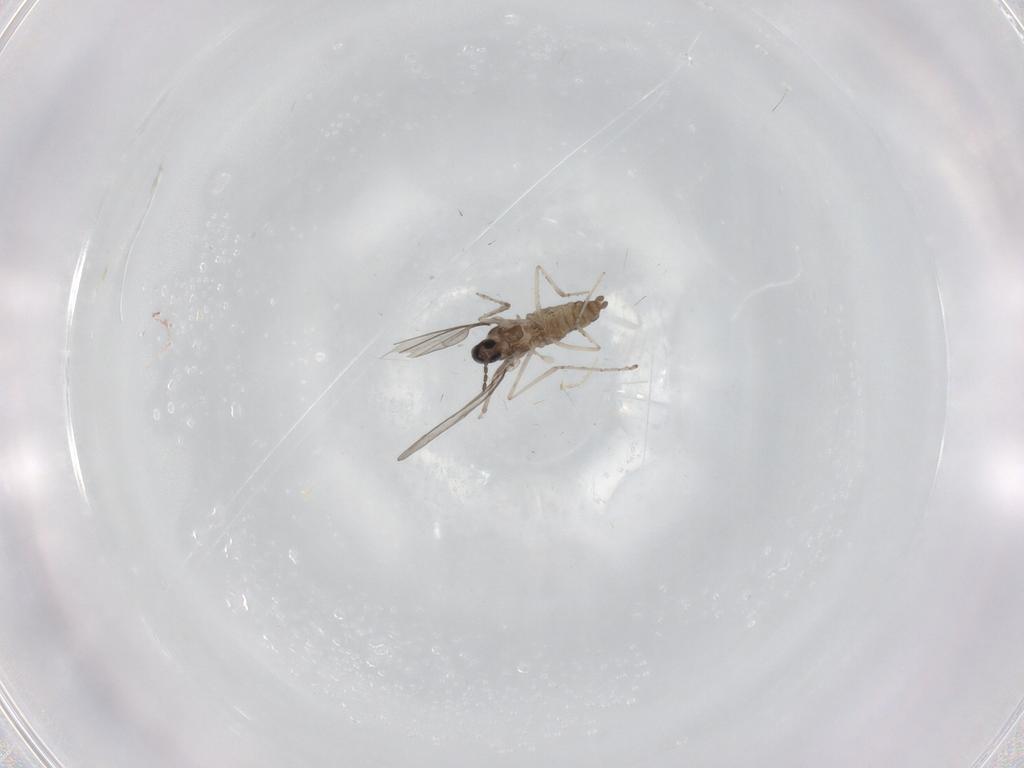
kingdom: Animalia
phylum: Arthropoda
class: Insecta
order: Diptera
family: Cecidomyiidae
